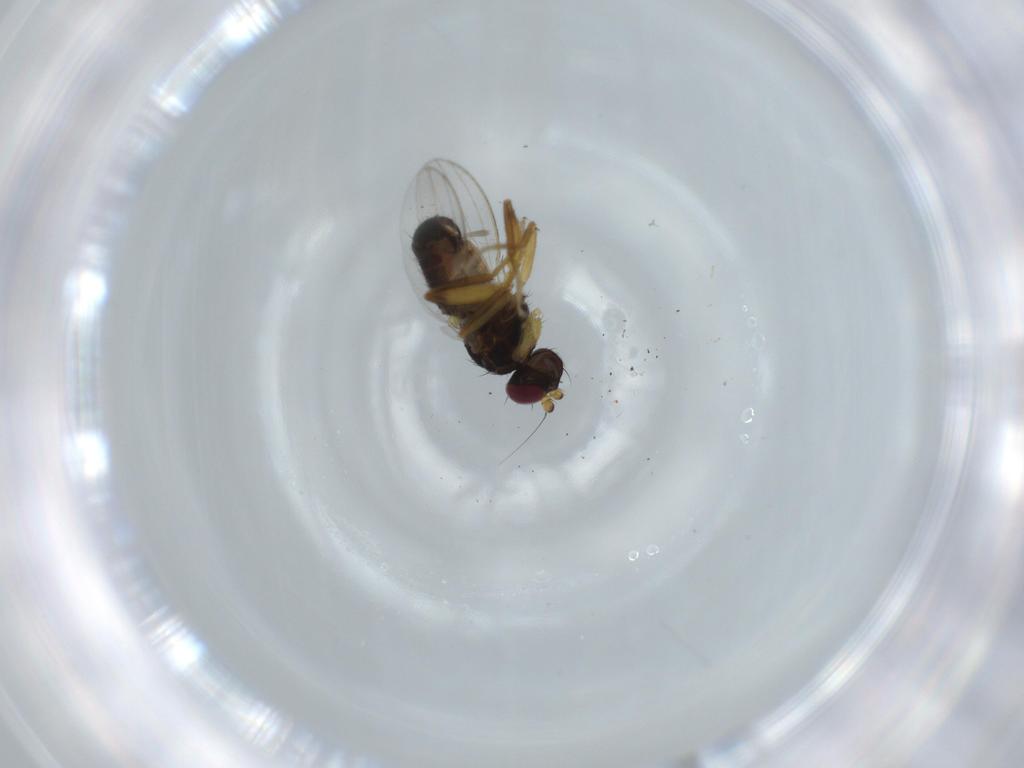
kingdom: Animalia
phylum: Arthropoda
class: Insecta
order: Diptera
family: Cypselosomatidae
